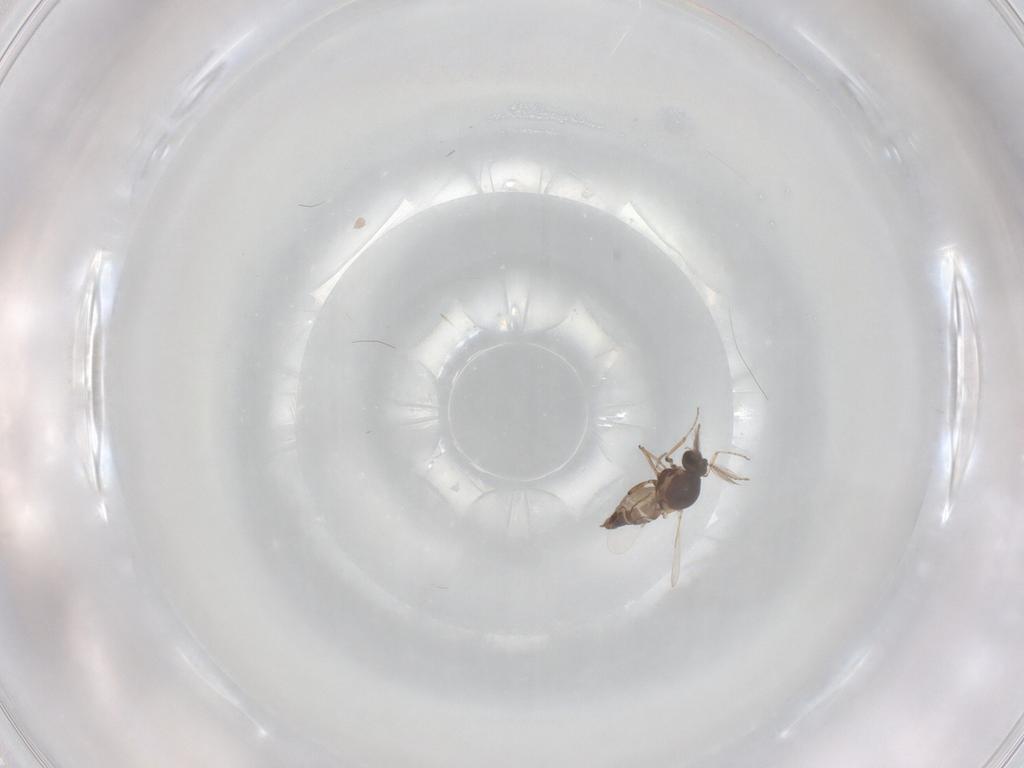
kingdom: Animalia
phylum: Arthropoda
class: Insecta
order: Diptera
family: Ceratopogonidae
